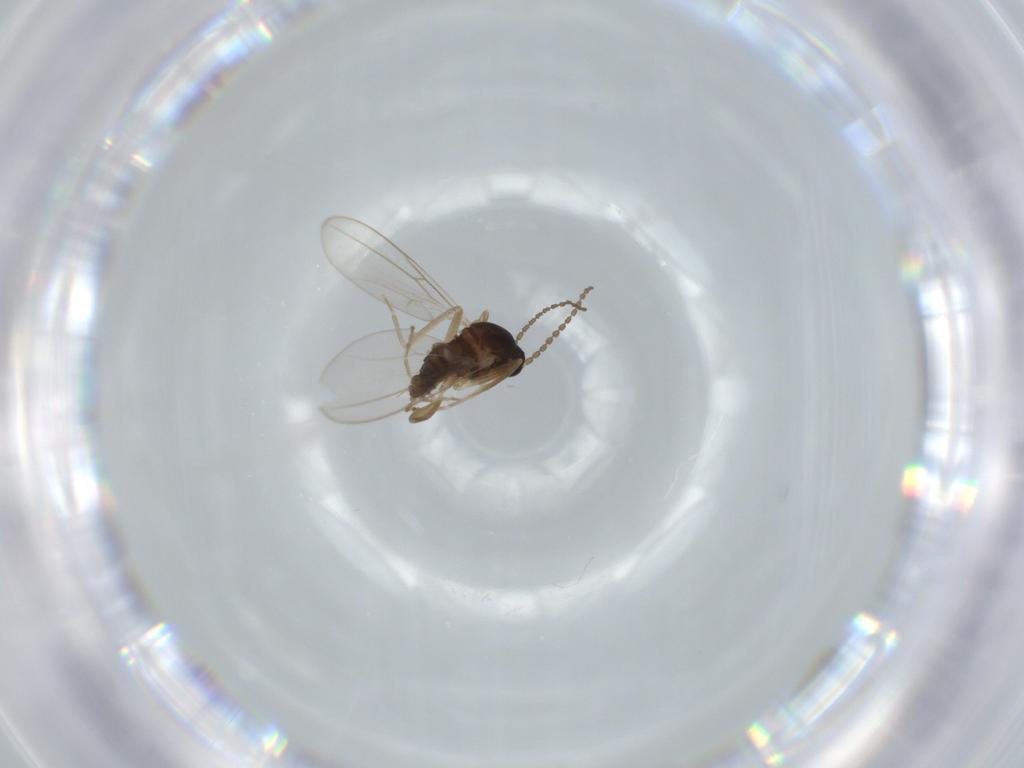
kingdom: Animalia
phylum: Arthropoda
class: Insecta
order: Diptera
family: Cecidomyiidae
